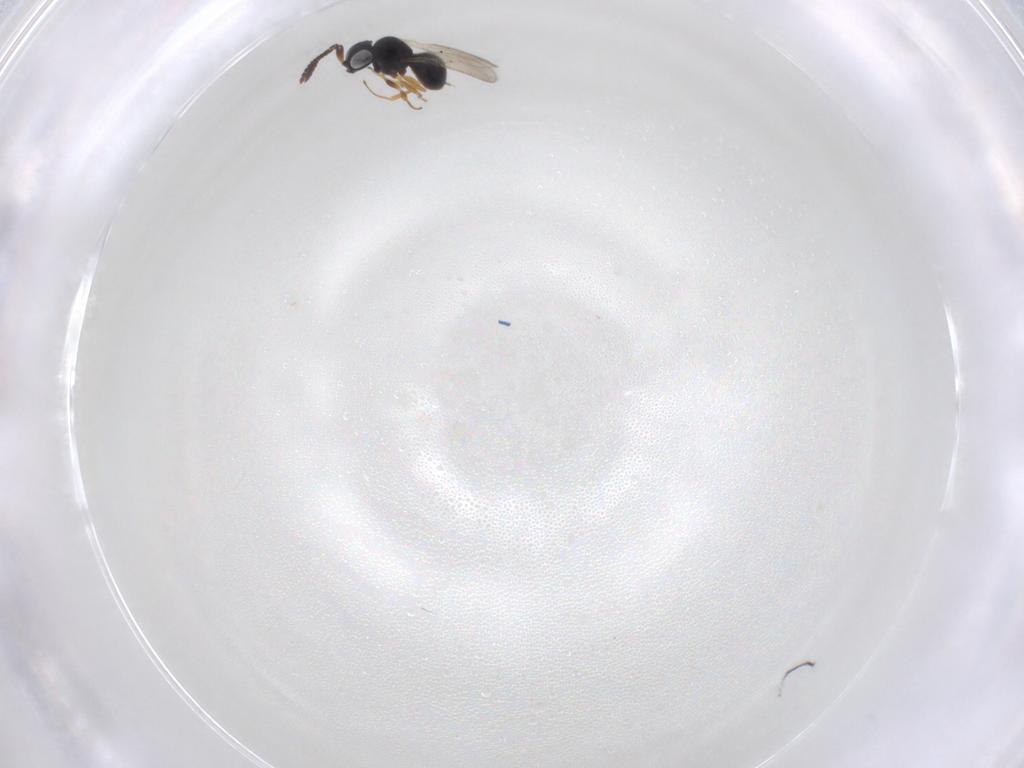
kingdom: Animalia
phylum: Arthropoda
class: Insecta
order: Hymenoptera
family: Scelionidae
